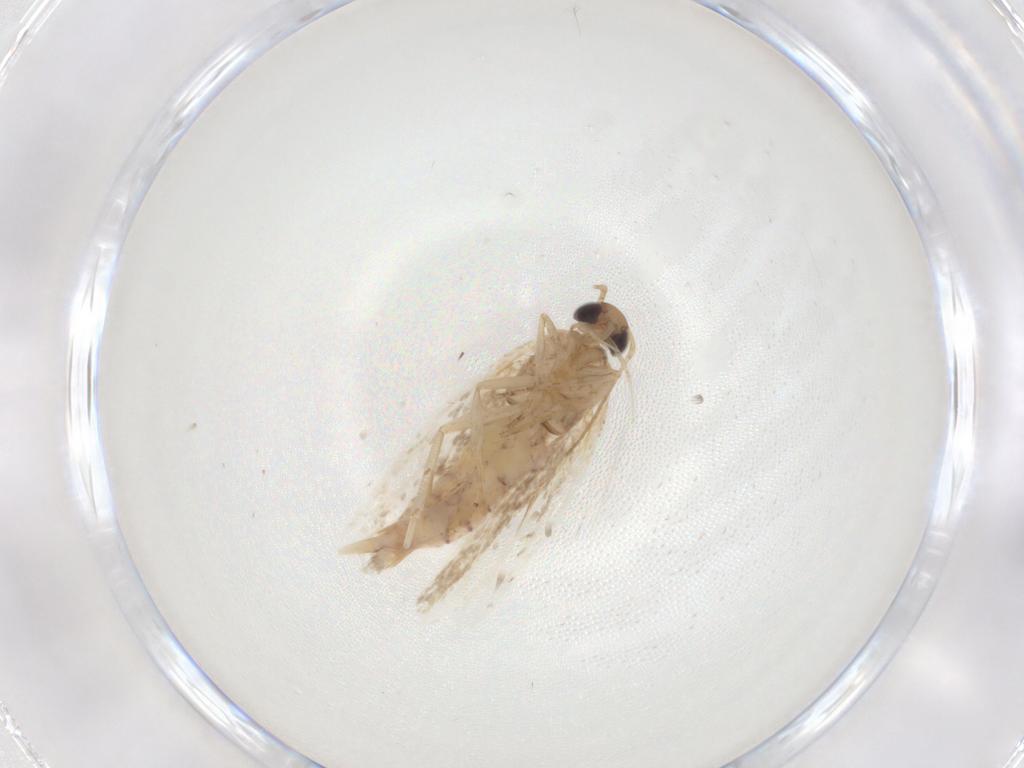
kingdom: Animalia
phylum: Arthropoda
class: Insecta
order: Lepidoptera
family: Gelechiidae
